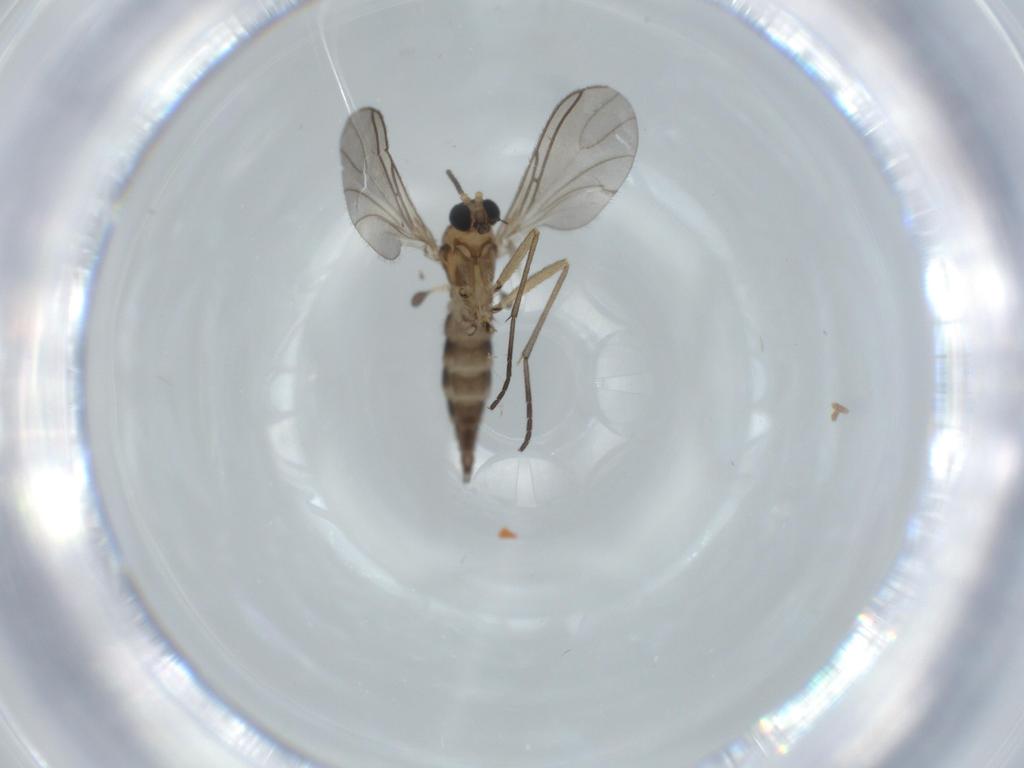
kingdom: Animalia
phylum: Arthropoda
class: Insecta
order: Diptera
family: Sciaridae
